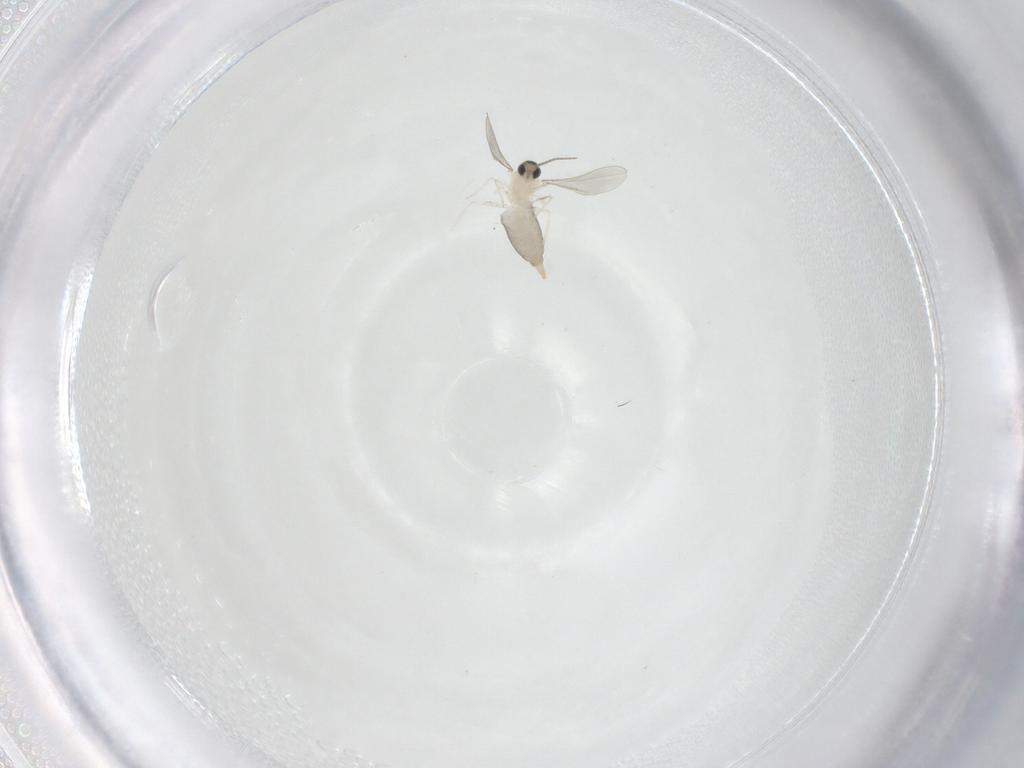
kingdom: Animalia
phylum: Arthropoda
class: Insecta
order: Diptera
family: Cecidomyiidae
